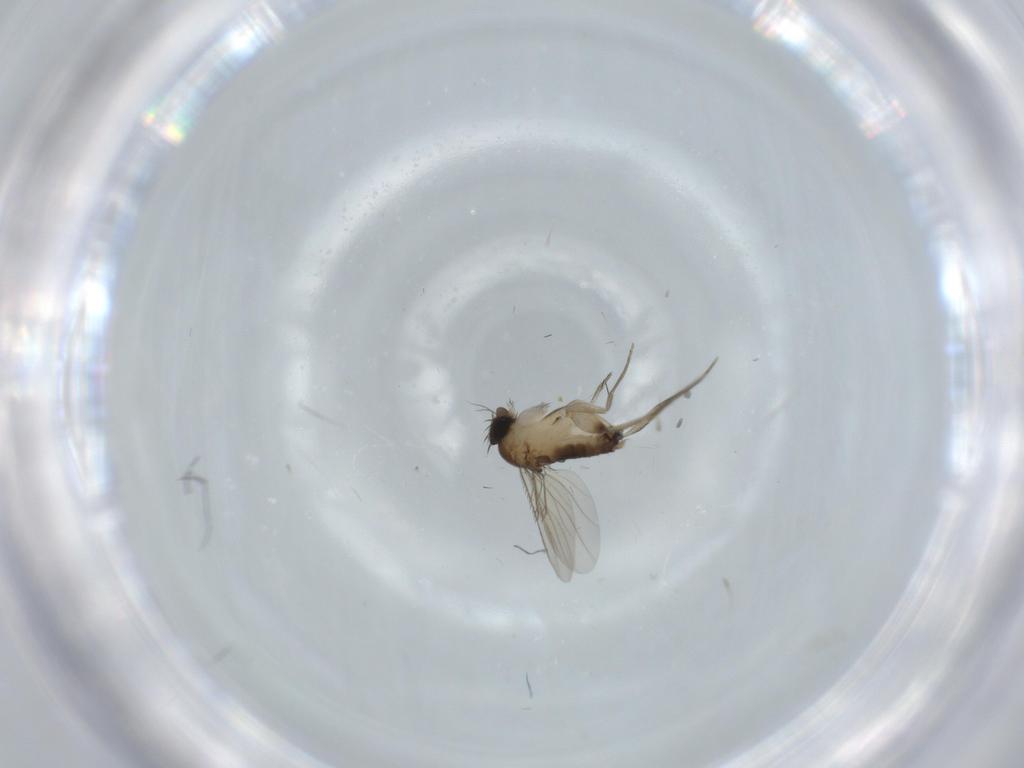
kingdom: Animalia
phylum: Arthropoda
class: Insecta
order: Diptera
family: Phoridae
